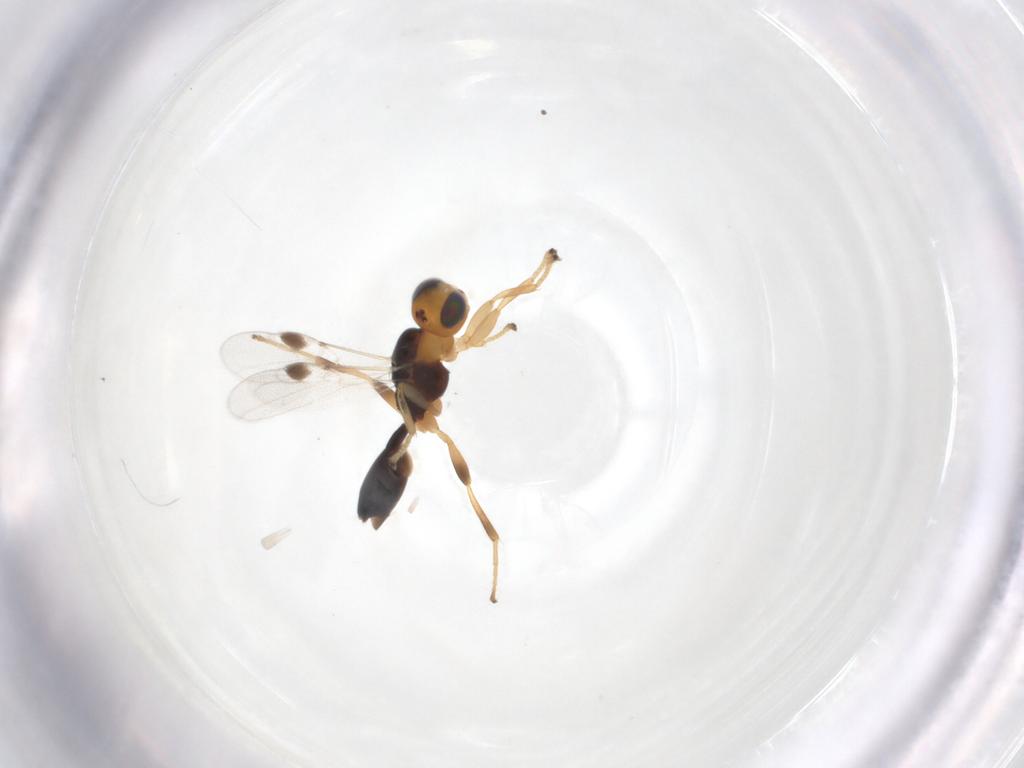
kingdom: Animalia
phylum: Arthropoda
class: Insecta
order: Hymenoptera
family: Braconidae
